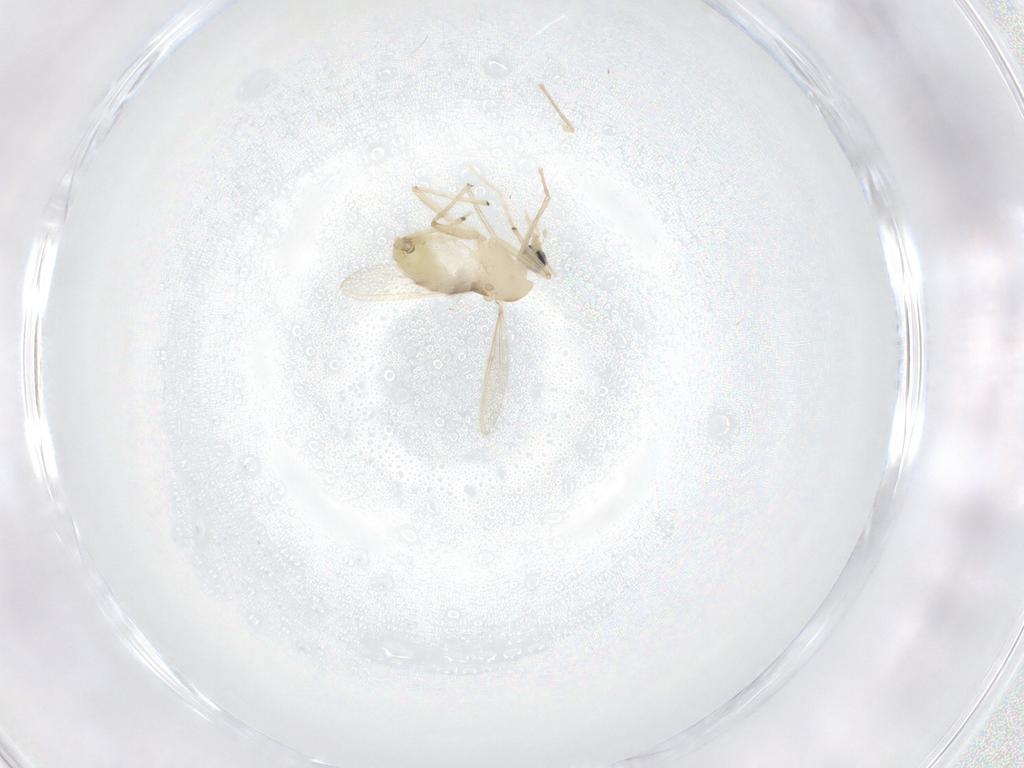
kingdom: Animalia
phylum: Arthropoda
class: Insecta
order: Diptera
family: Chironomidae
